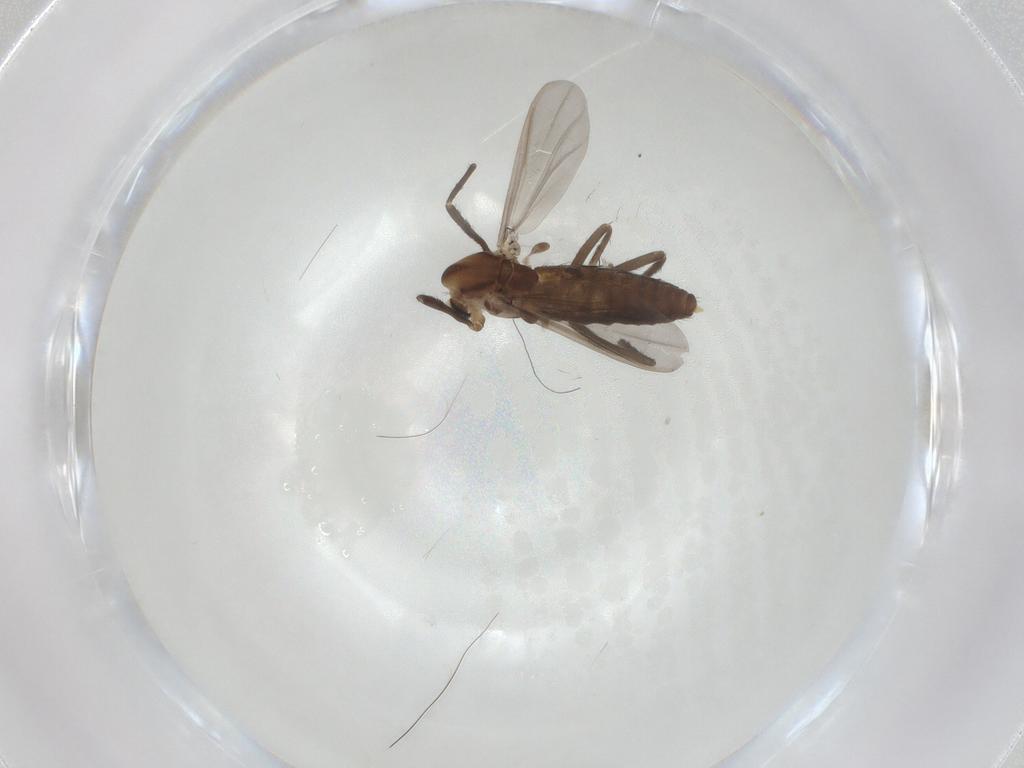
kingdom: Animalia
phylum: Arthropoda
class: Insecta
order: Diptera
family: Chironomidae
